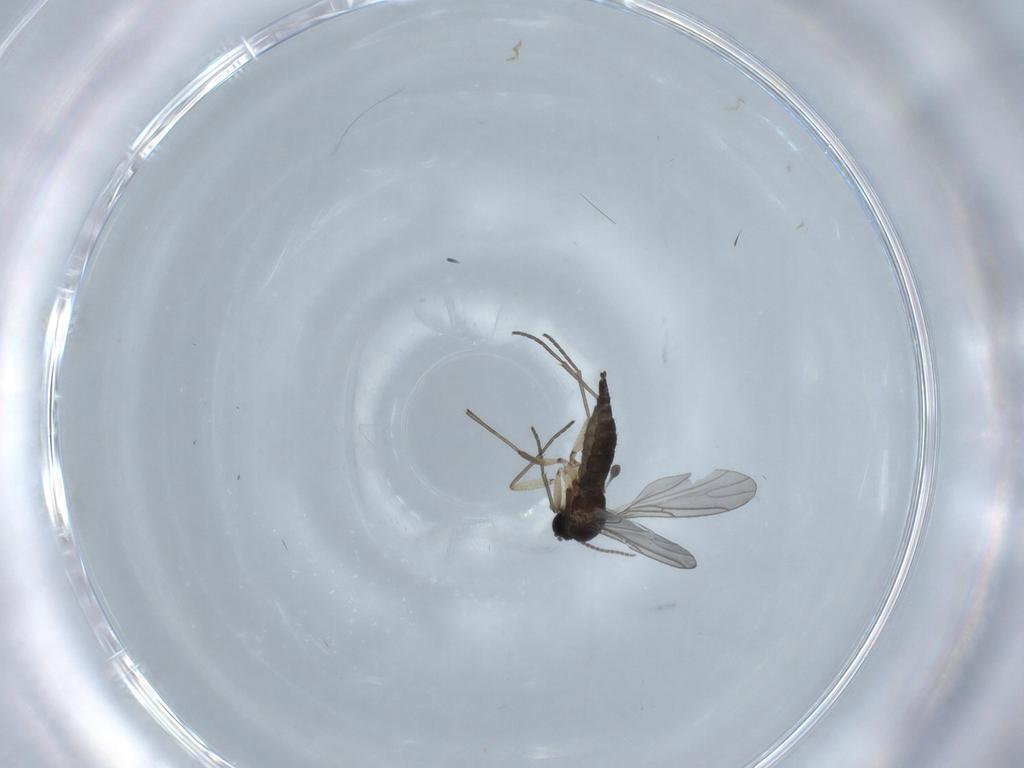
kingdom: Animalia
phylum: Arthropoda
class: Insecta
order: Diptera
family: Sciaridae
